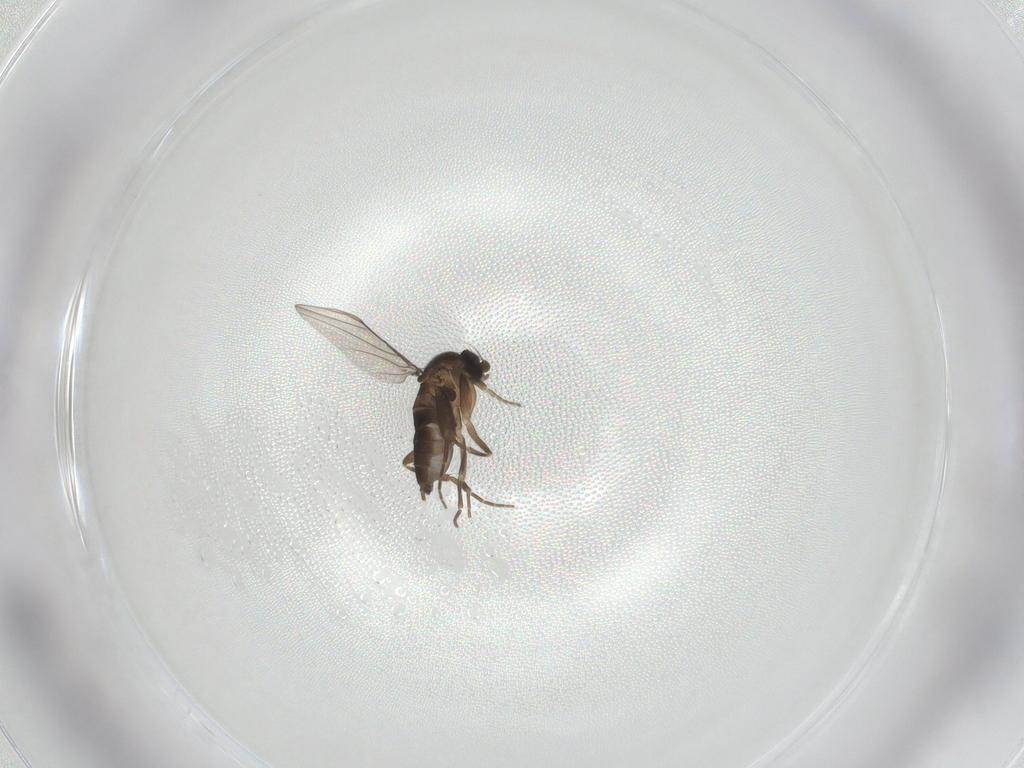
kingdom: Animalia
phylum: Arthropoda
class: Insecta
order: Diptera
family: Phoridae
